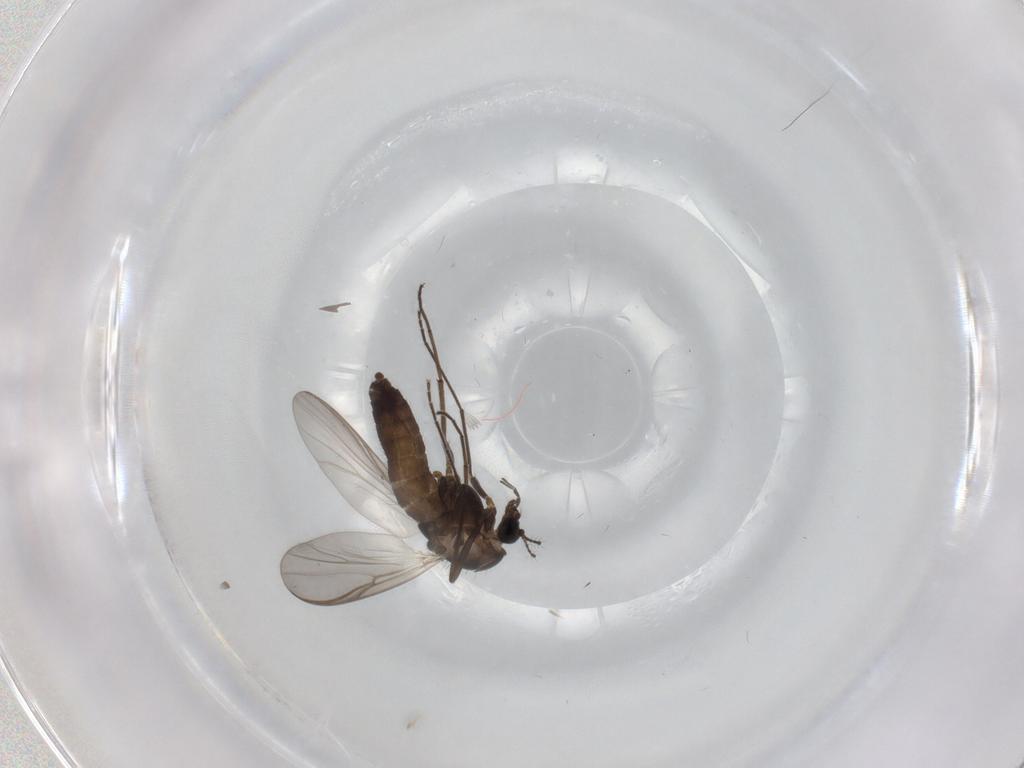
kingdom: Animalia
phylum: Arthropoda
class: Insecta
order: Diptera
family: Chironomidae
